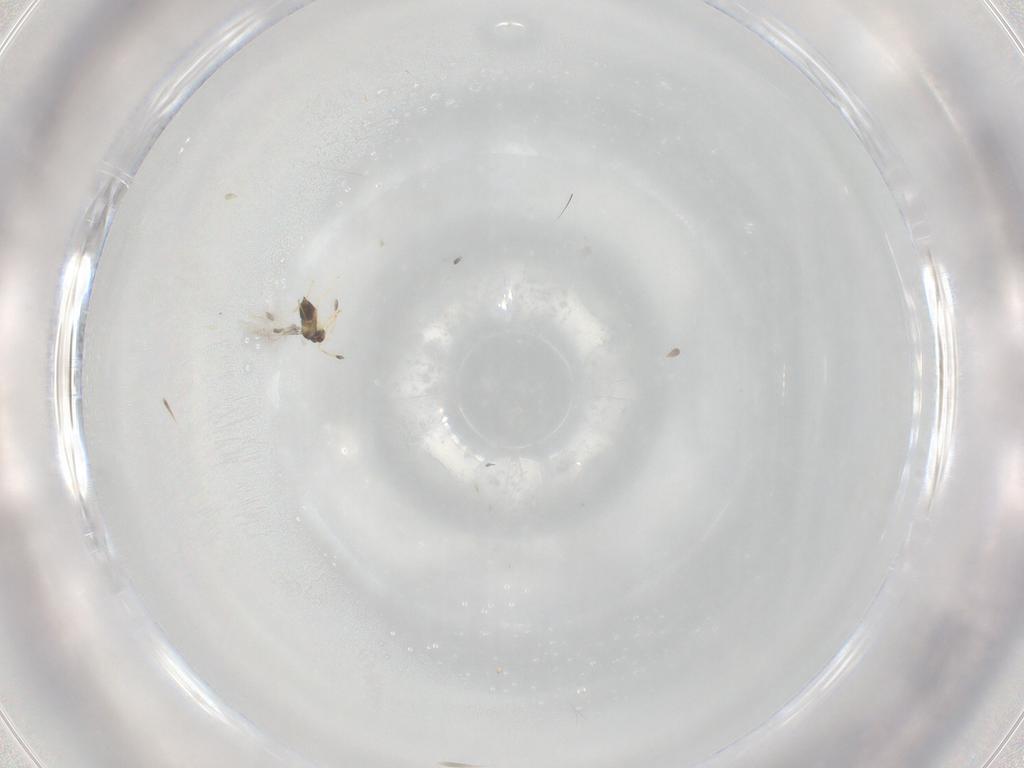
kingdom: Animalia
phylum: Arthropoda
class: Insecta
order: Hymenoptera
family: Mymaridae
